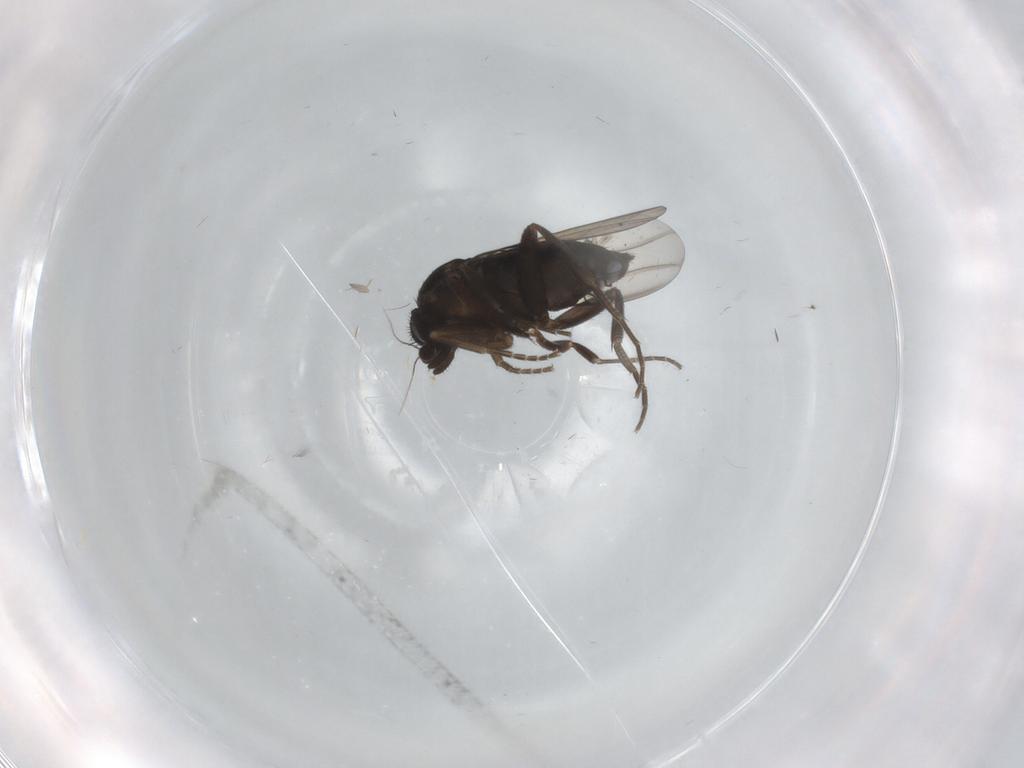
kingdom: Animalia
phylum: Arthropoda
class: Insecta
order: Diptera
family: Phoridae
